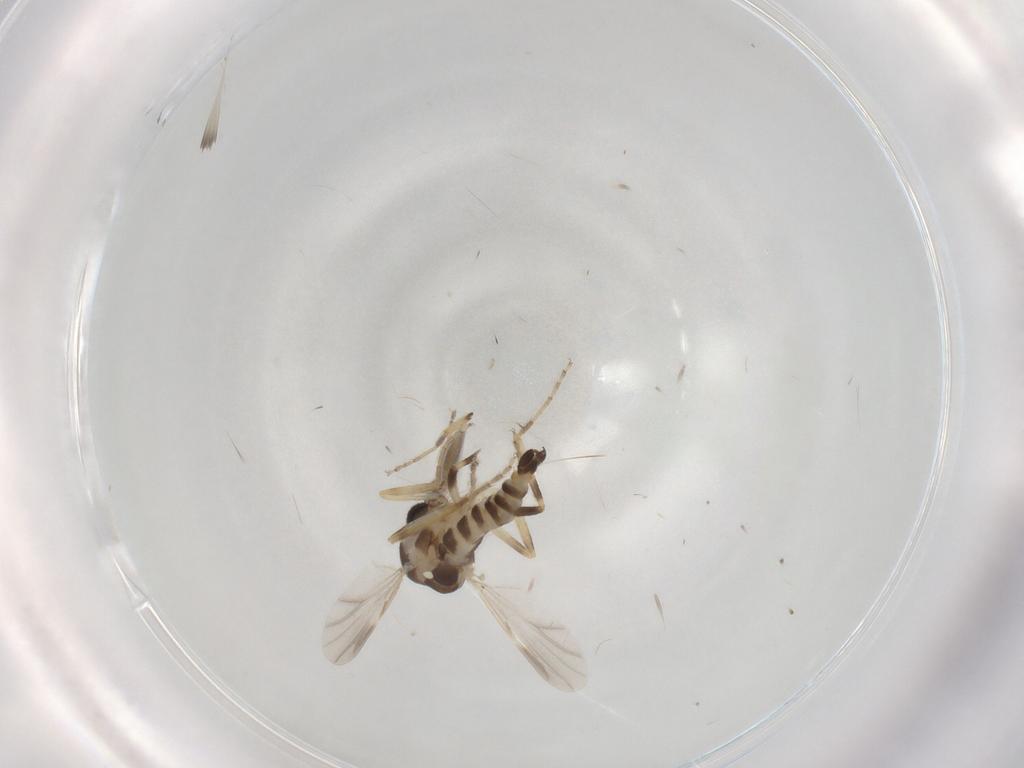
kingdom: Animalia
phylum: Arthropoda
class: Insecta
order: Diptera
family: Ceratopogonidae
